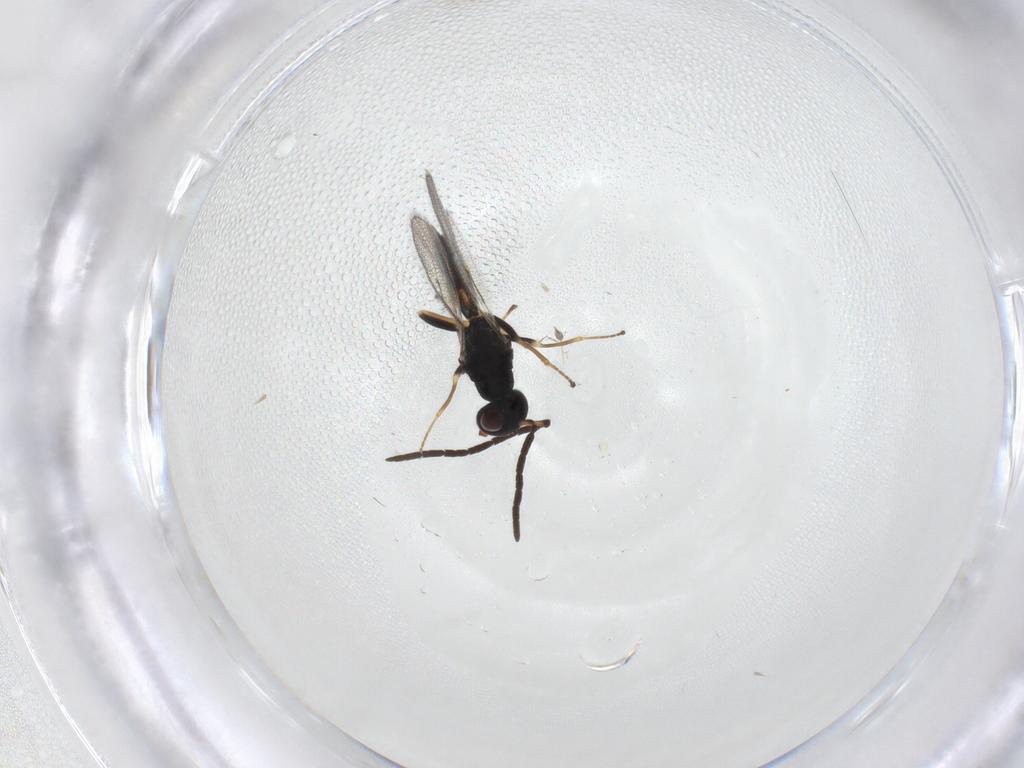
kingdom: Animalia
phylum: Arthropoda
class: Insecta
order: Hymenoptera
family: Pteromalidae
